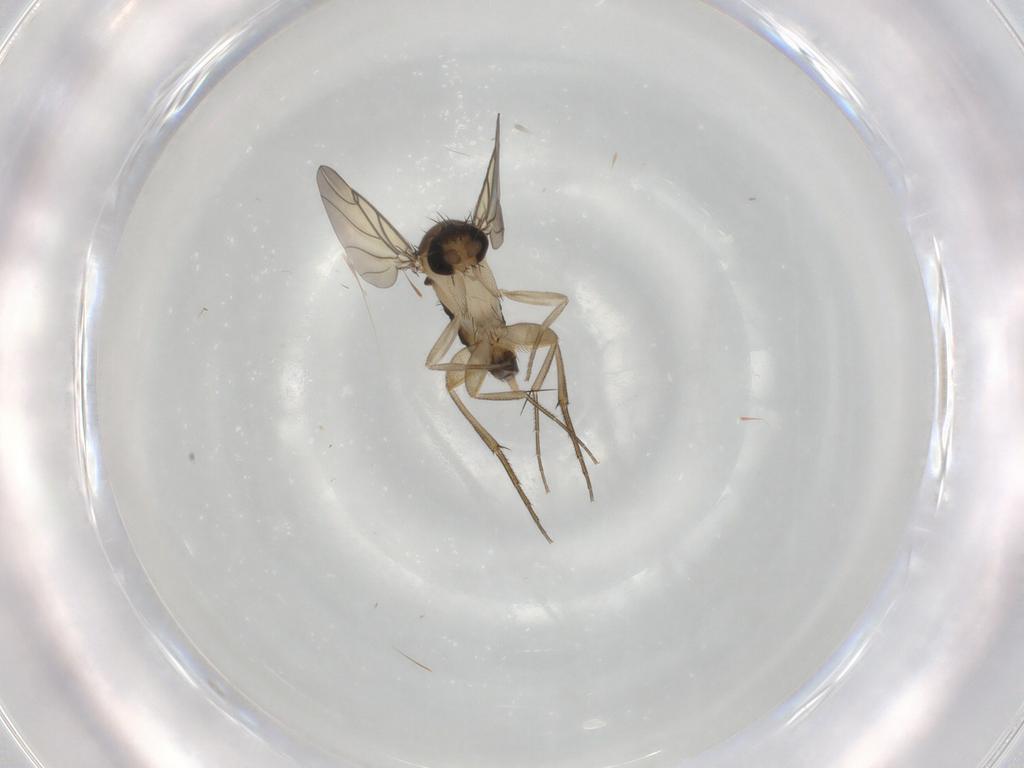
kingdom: Animalia
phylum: Arthropoda
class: Insecta
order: Diptera
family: Sciaridae
